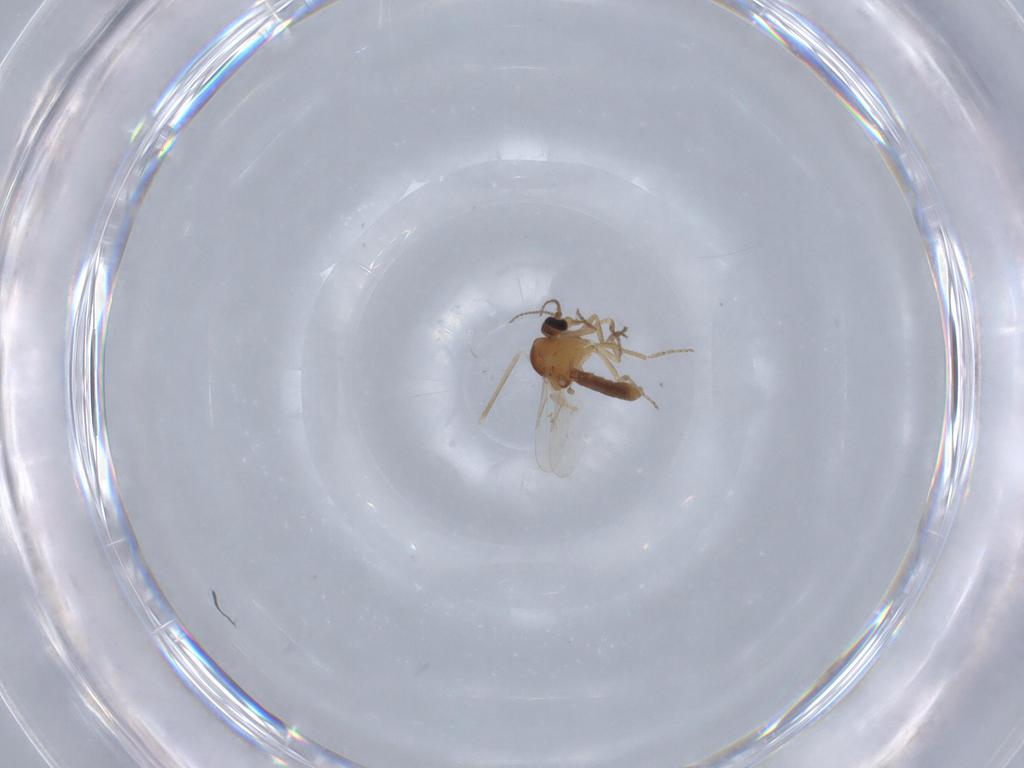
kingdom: Animalia
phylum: Arthropoda
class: Insecta
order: Diptera
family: Ceratopogonidae
